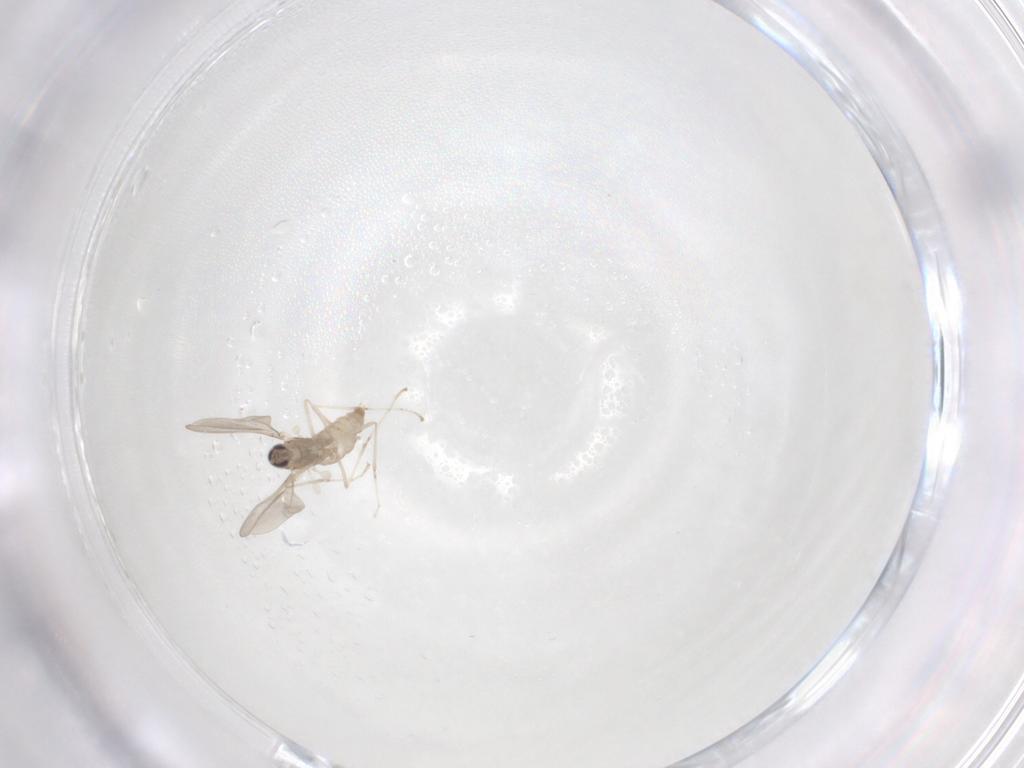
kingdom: Animalia
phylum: Arthropoda
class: Insecta
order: Diptera
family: Cecidomyiidae
